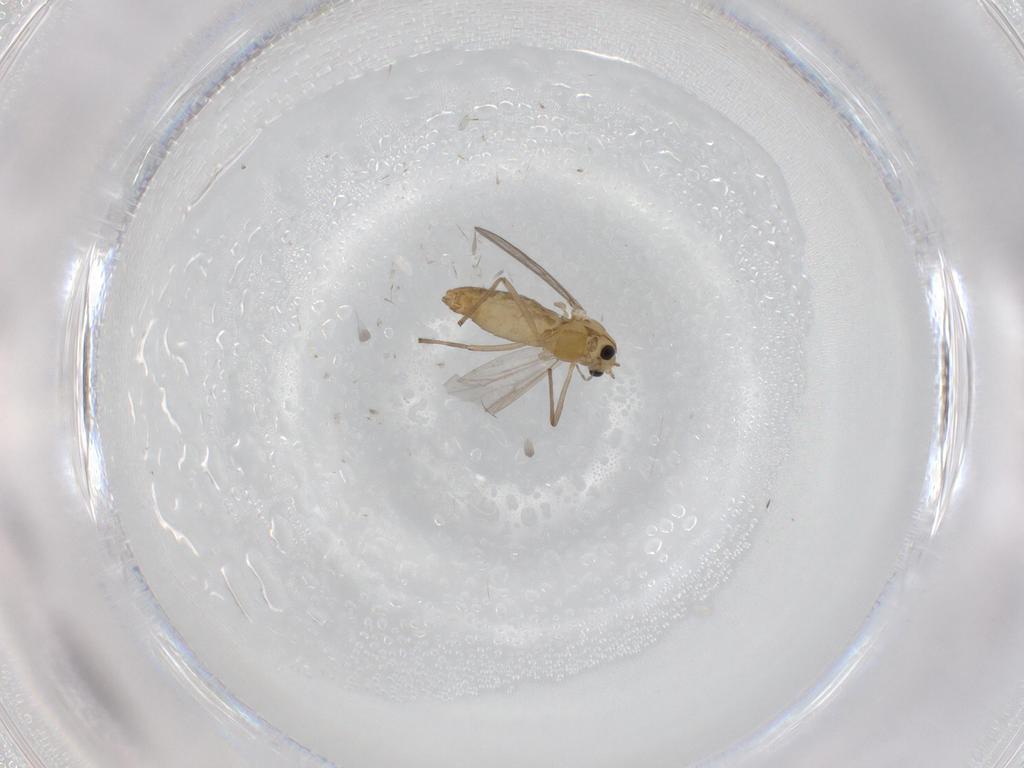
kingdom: Animalia
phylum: Arthropoda
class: Insecta
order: Diptera
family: Chironomidae
